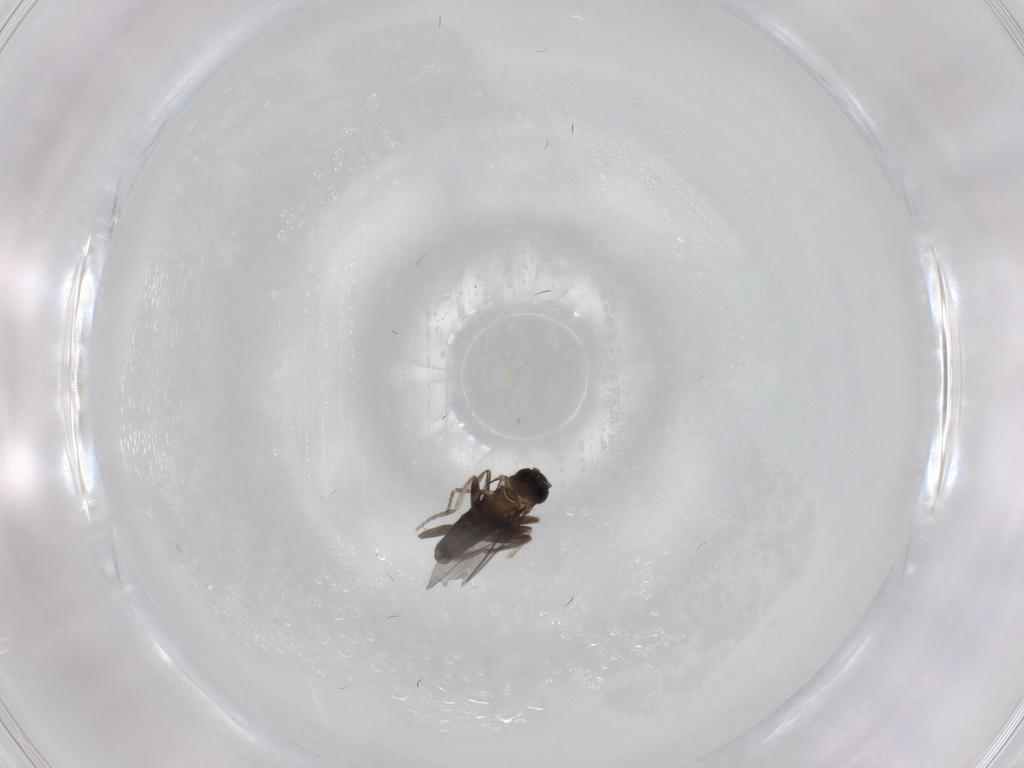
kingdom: Animalia
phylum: Arthropoda
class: Insecta
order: Diptera
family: Phoridae
